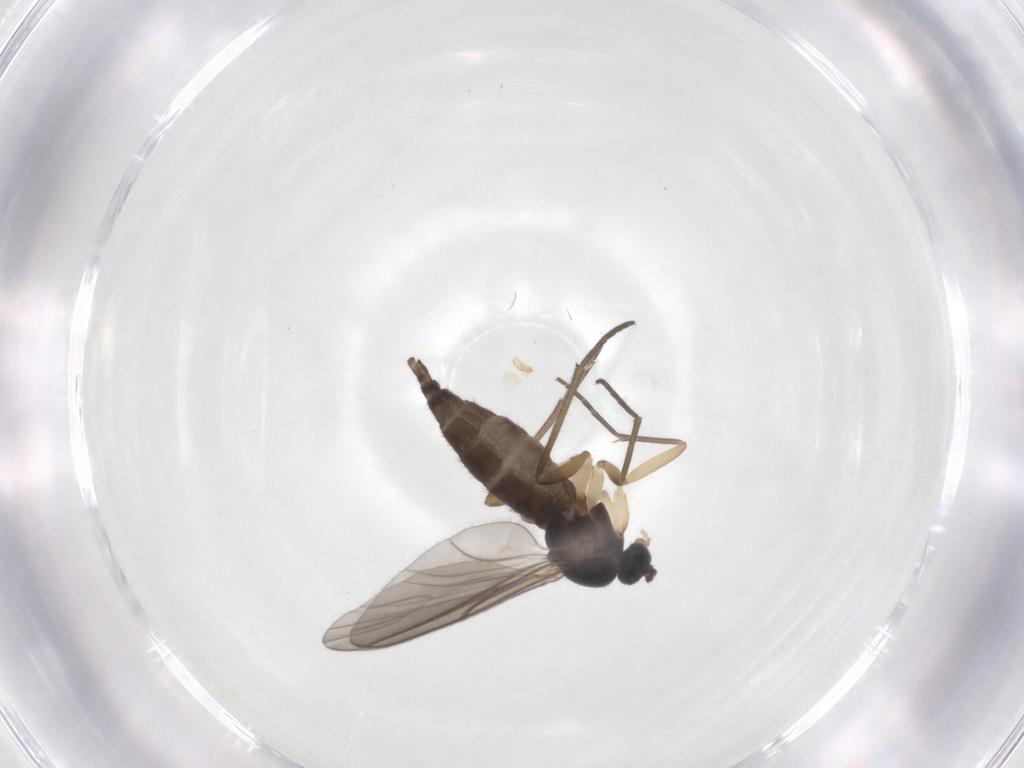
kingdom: Animalia
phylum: Arthropoda
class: Insecta
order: Diptera
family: Sciaridae
